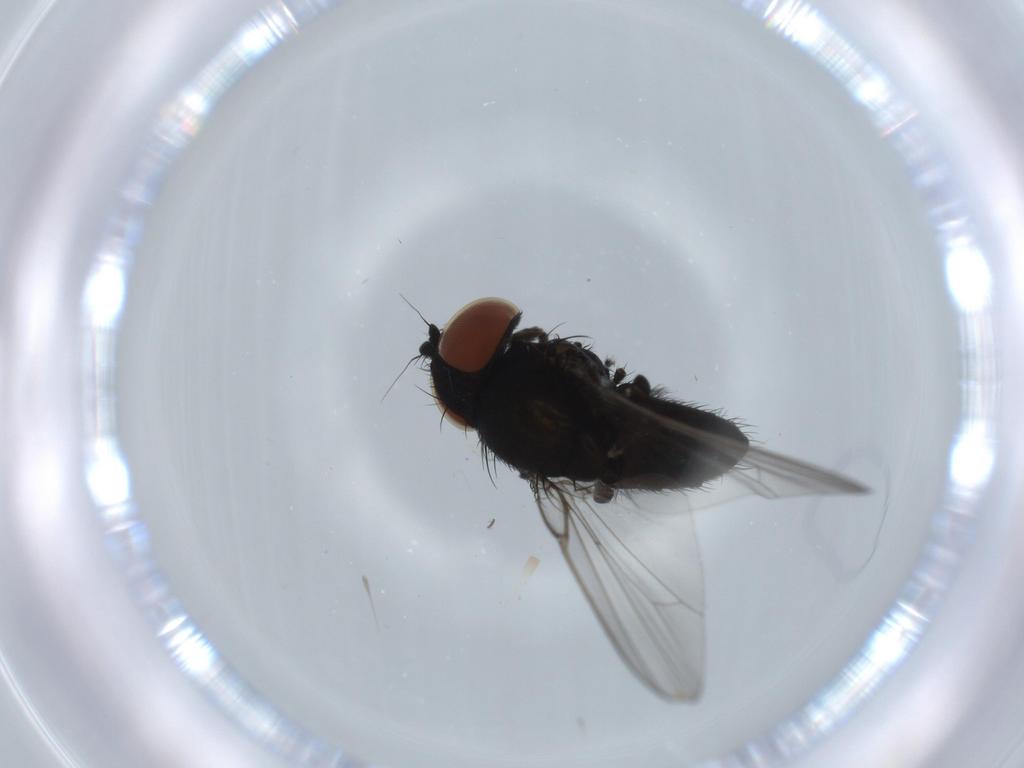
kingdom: Animalia
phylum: Arthropoda
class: Insecta
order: Diptera
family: Milichiidae
